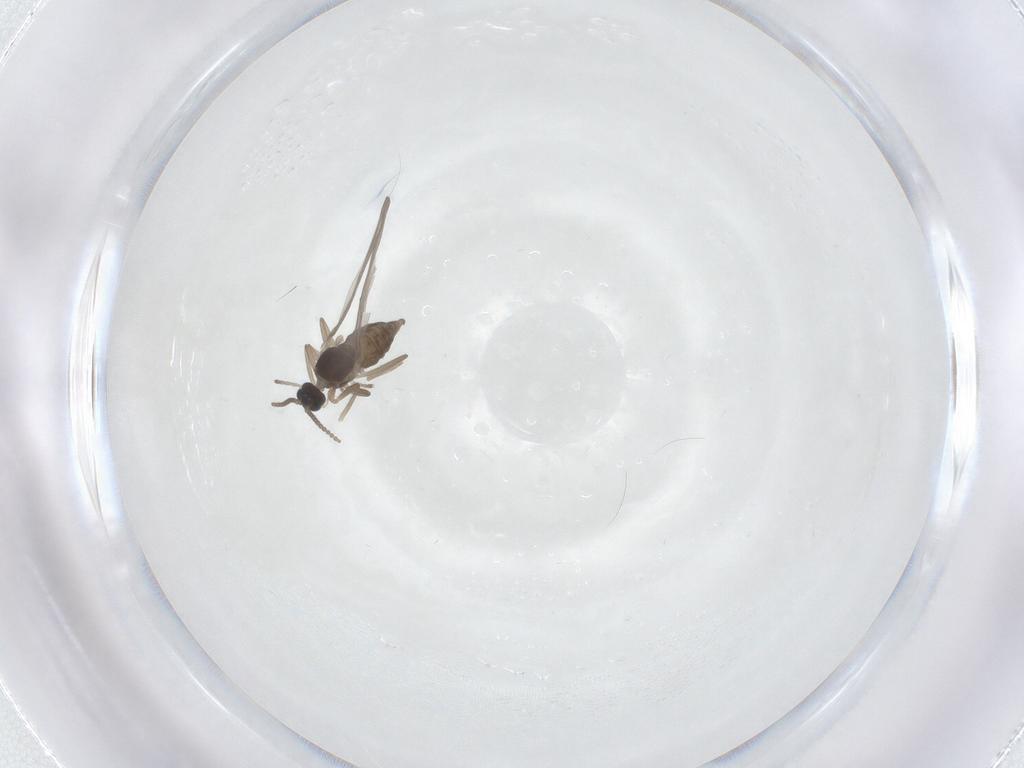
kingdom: Animalia
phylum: Arthropoda
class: Insecta
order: Diptera
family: Cecidomyiidae
